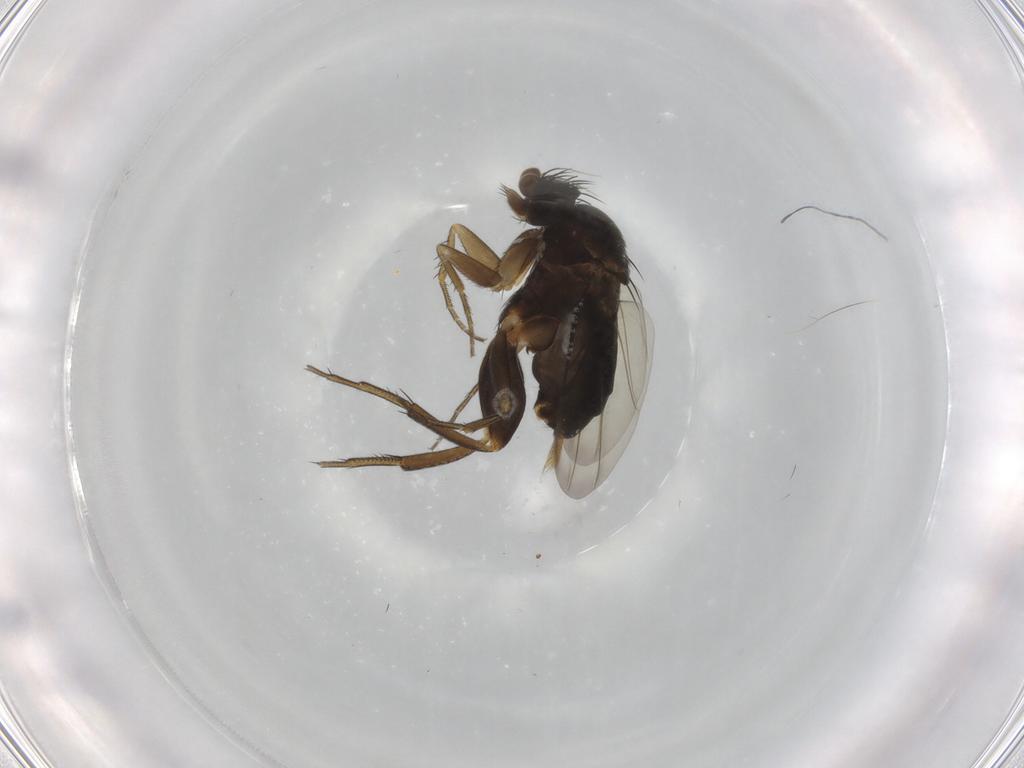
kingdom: Animalia
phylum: Arthropoda
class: Insecta
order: Diptera
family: Phoridae
